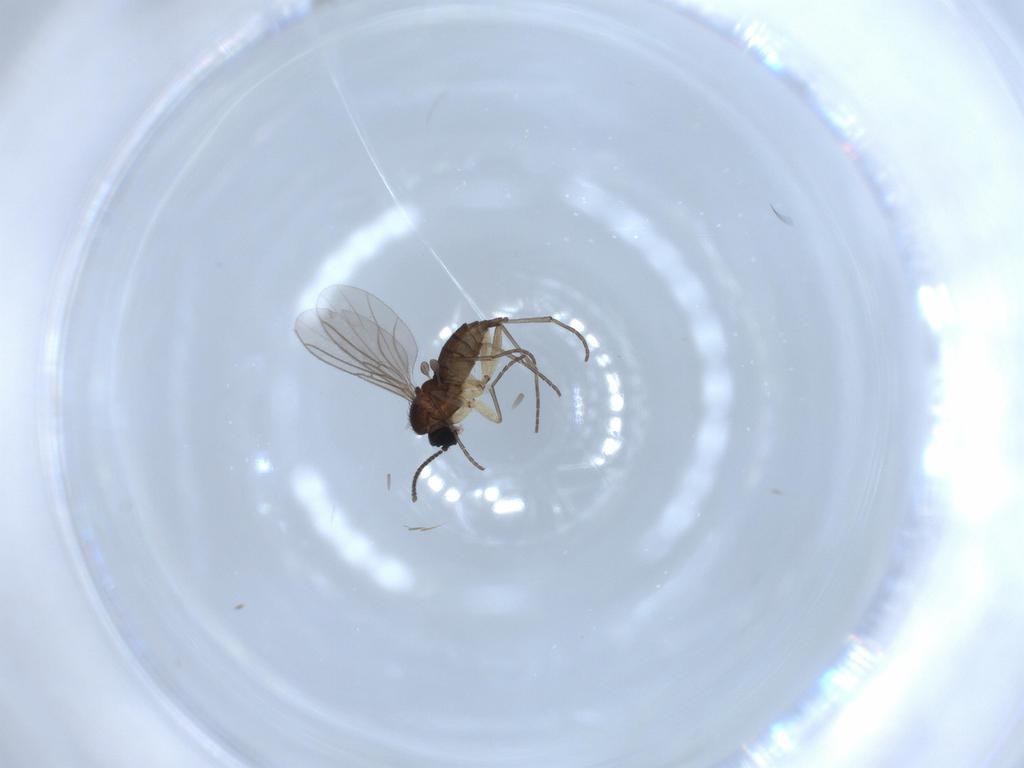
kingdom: Animalia
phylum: Arthropoda
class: Insecta
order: Diptera
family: Sciaridae
